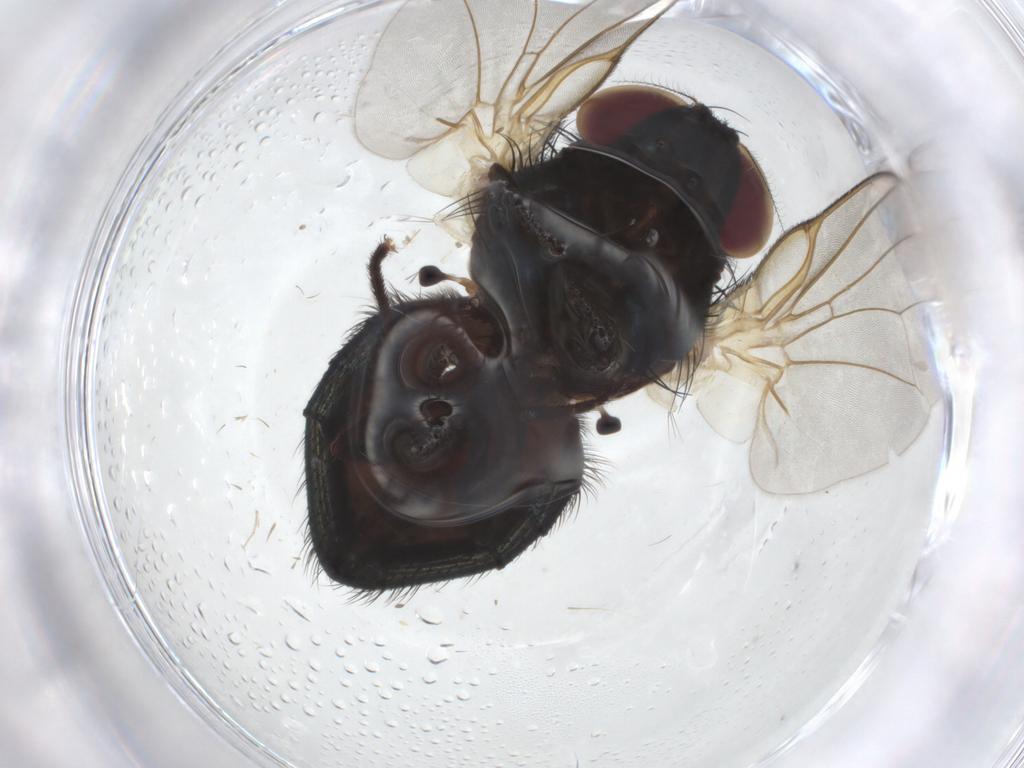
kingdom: Animalia
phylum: Arthropoda
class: Insecta
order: Diptera
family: Lonchaeidae
